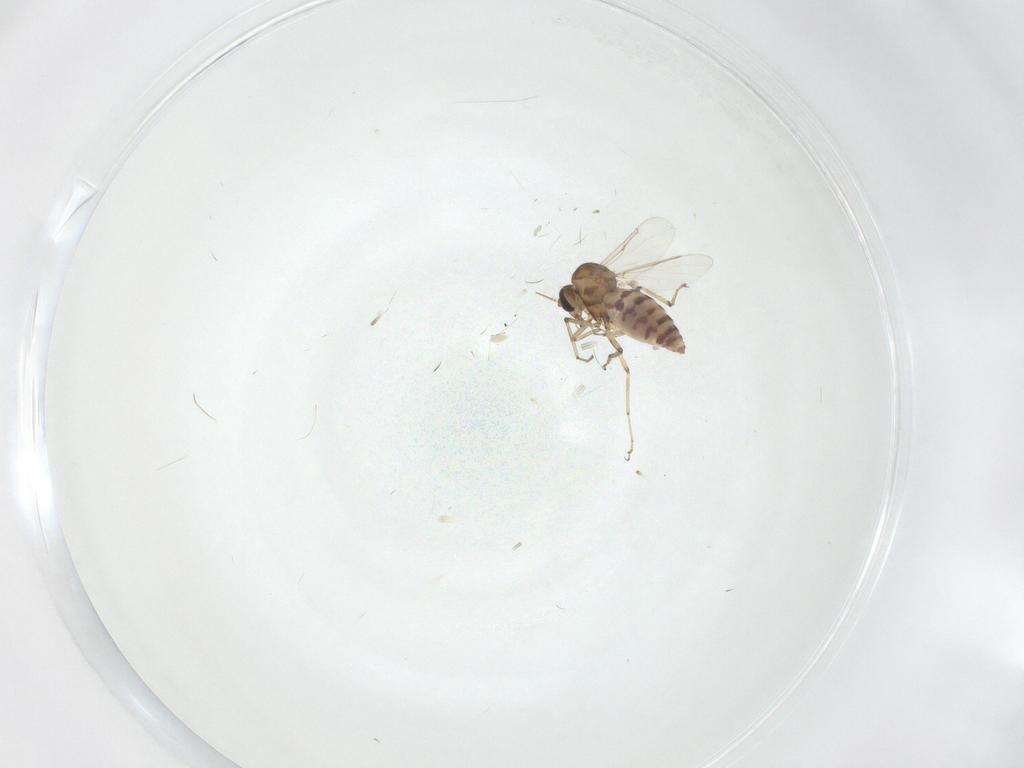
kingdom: Animalia
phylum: Arthropoda
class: Insecta
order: Diptera
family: Ceratopogonidae
